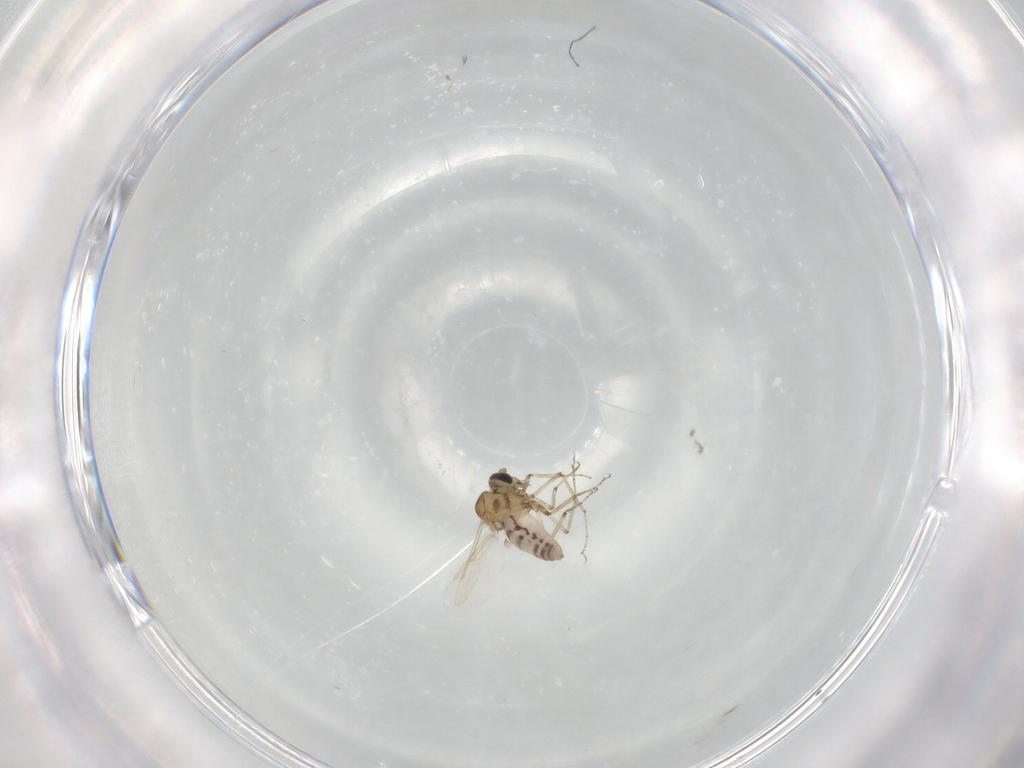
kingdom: Animalia
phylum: Arthropoda
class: Insecta
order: Diptera
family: Ceratopogonidae
